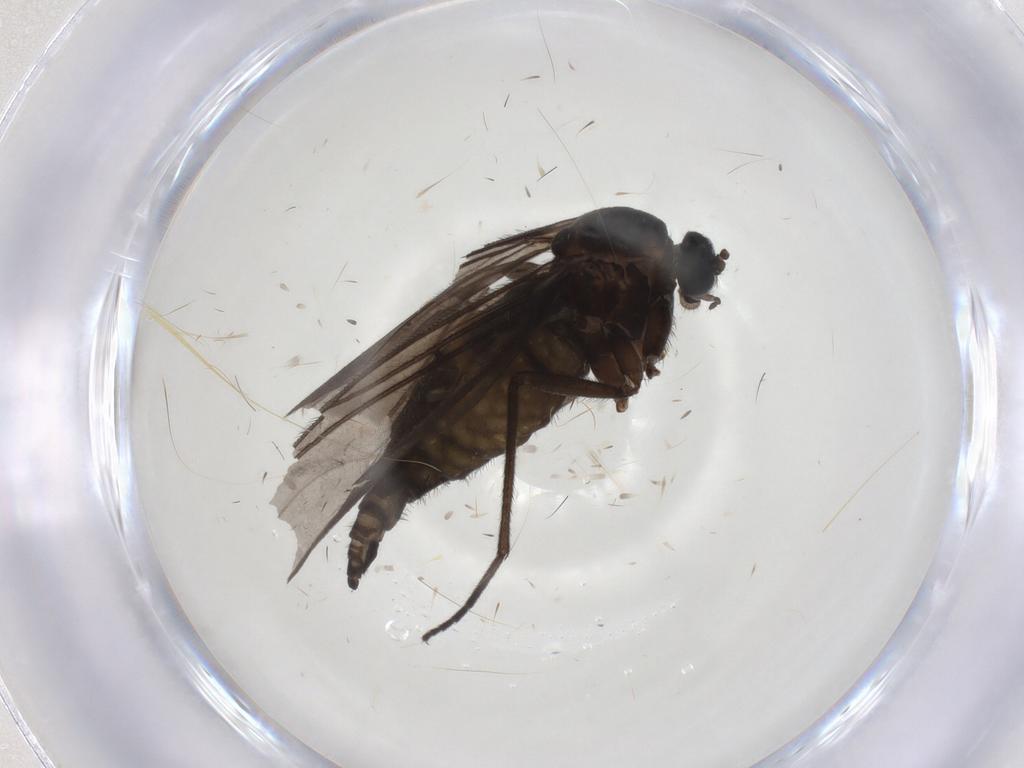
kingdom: Animalia
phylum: Arthropoda
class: Insecta
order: Diptera
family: Sciaridae
